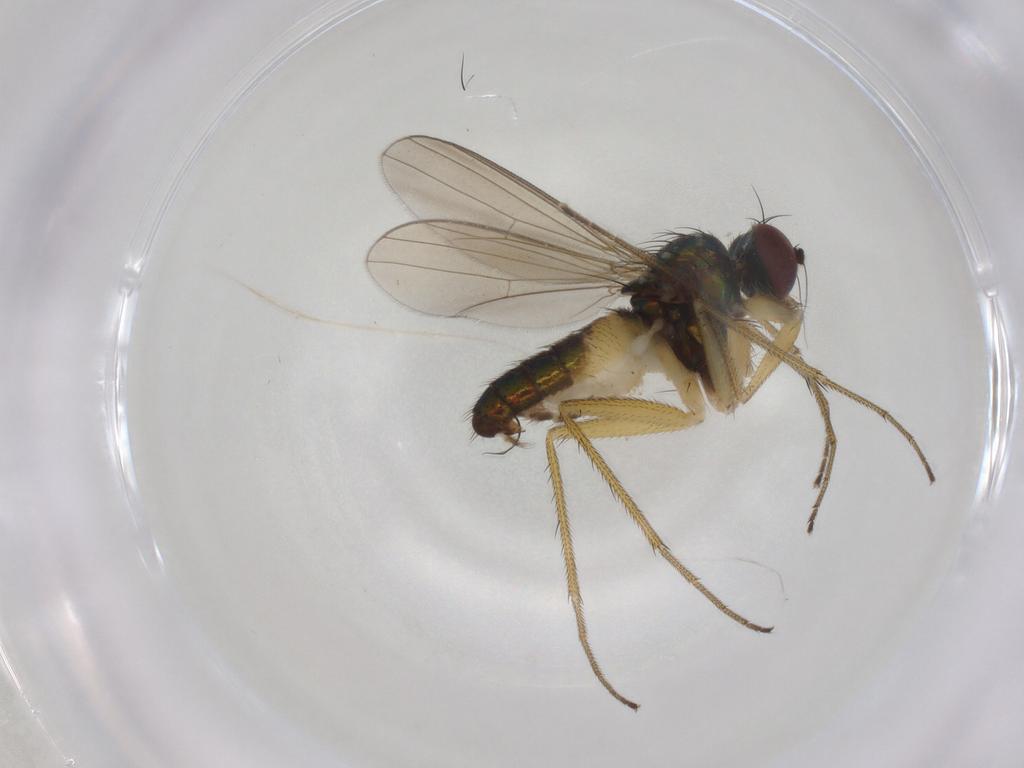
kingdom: Animalia
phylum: Arthropoda
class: Insecta
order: Diptera
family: Dolichopodidae
